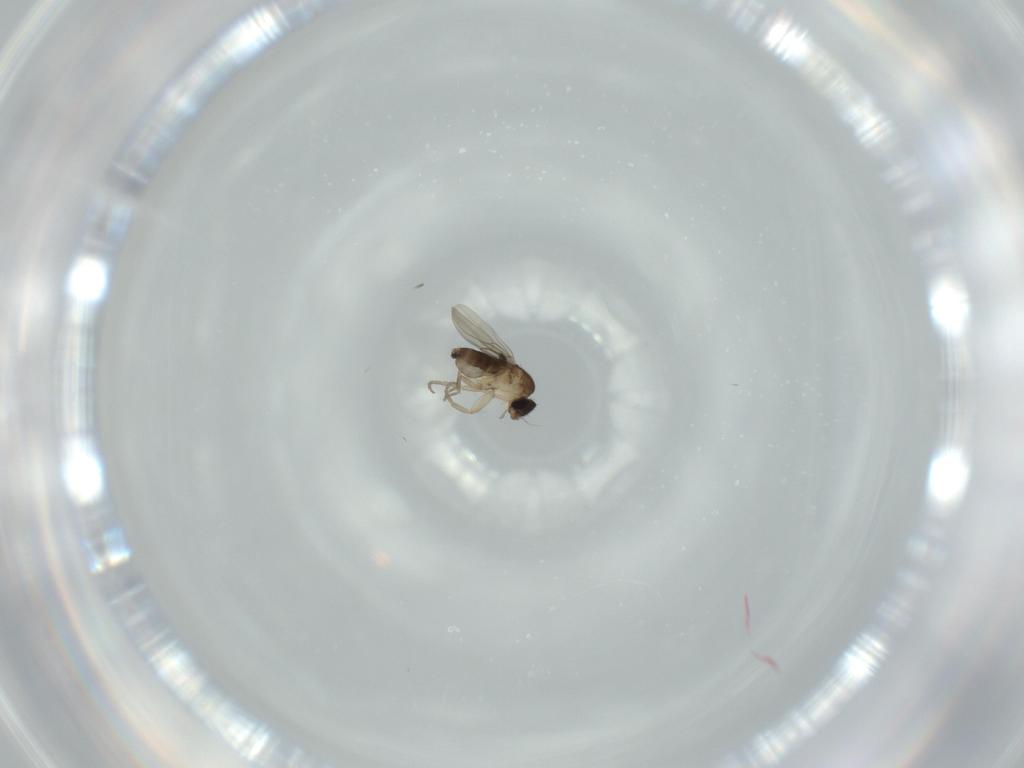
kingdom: Animalia
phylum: Arthropoda
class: Insecta
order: Diptera
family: Phoridae
